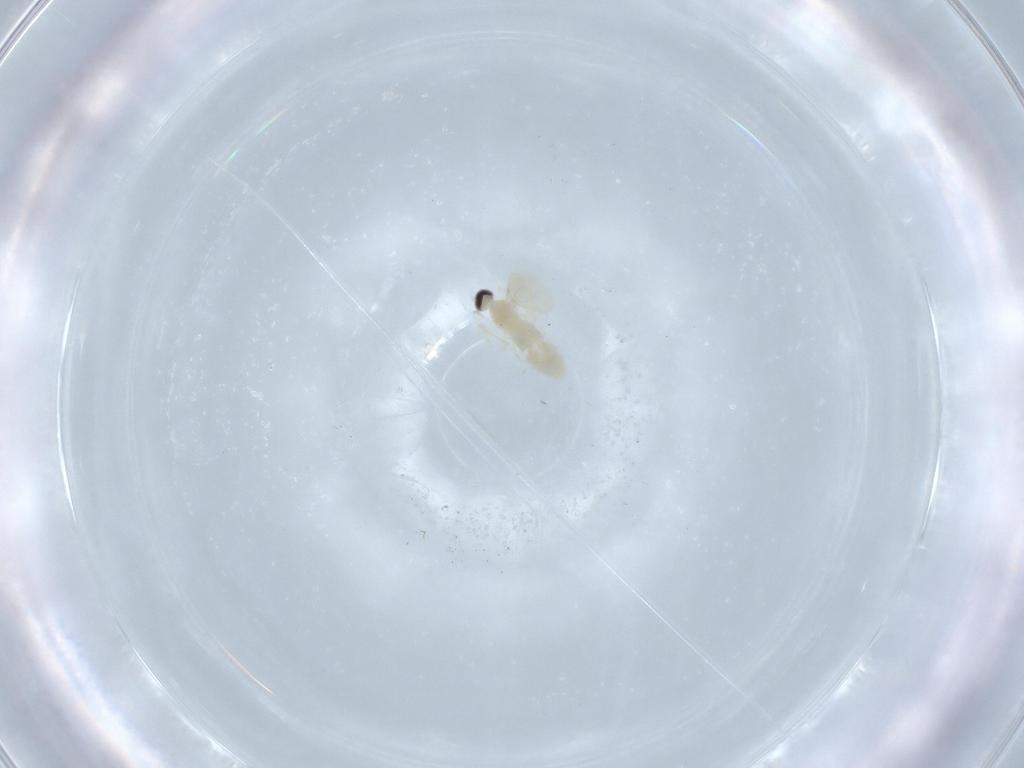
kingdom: Animalia
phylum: Arthropoda
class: Insecta
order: Diptera
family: Cecidomyiidae
